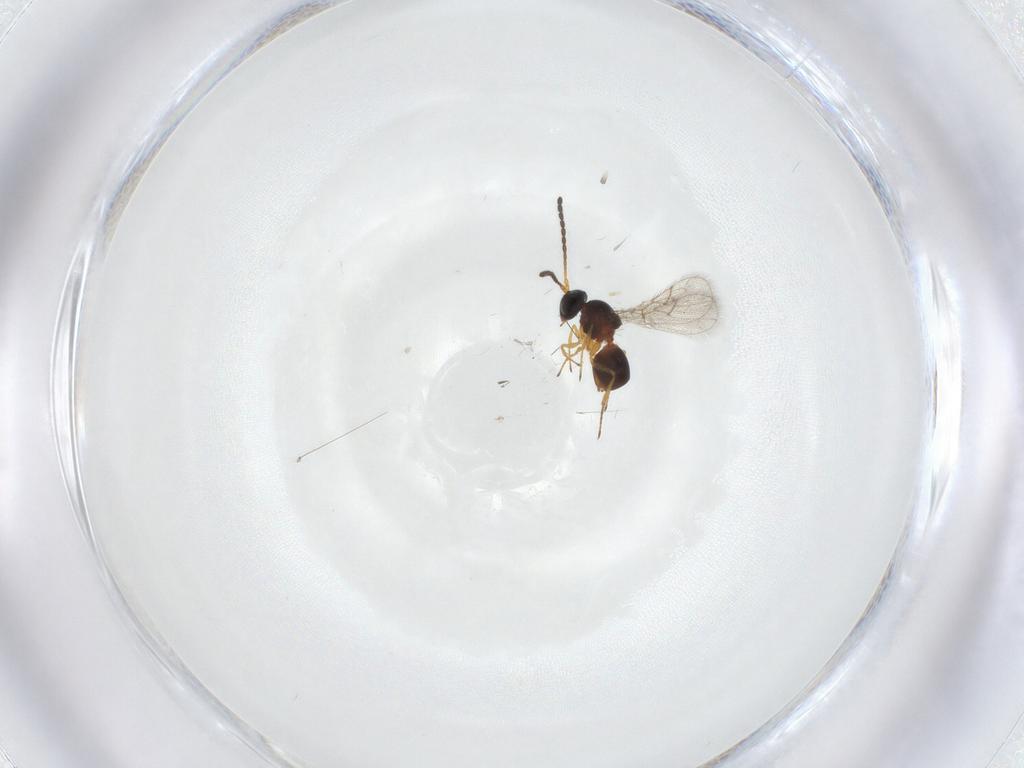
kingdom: Animalia
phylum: Arthropoda
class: Insecta
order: Hymenoptera
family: Figitidae
